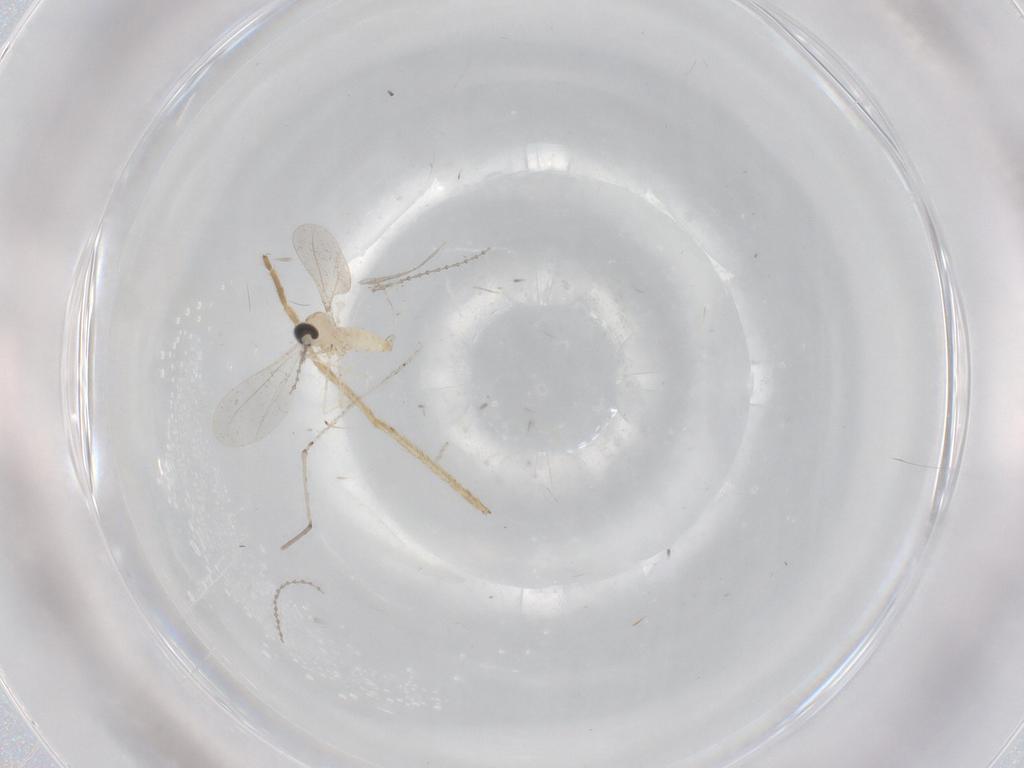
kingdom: Animalia
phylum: Arthropoda
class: Insecta
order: Diptera
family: Cecidomyiidae
